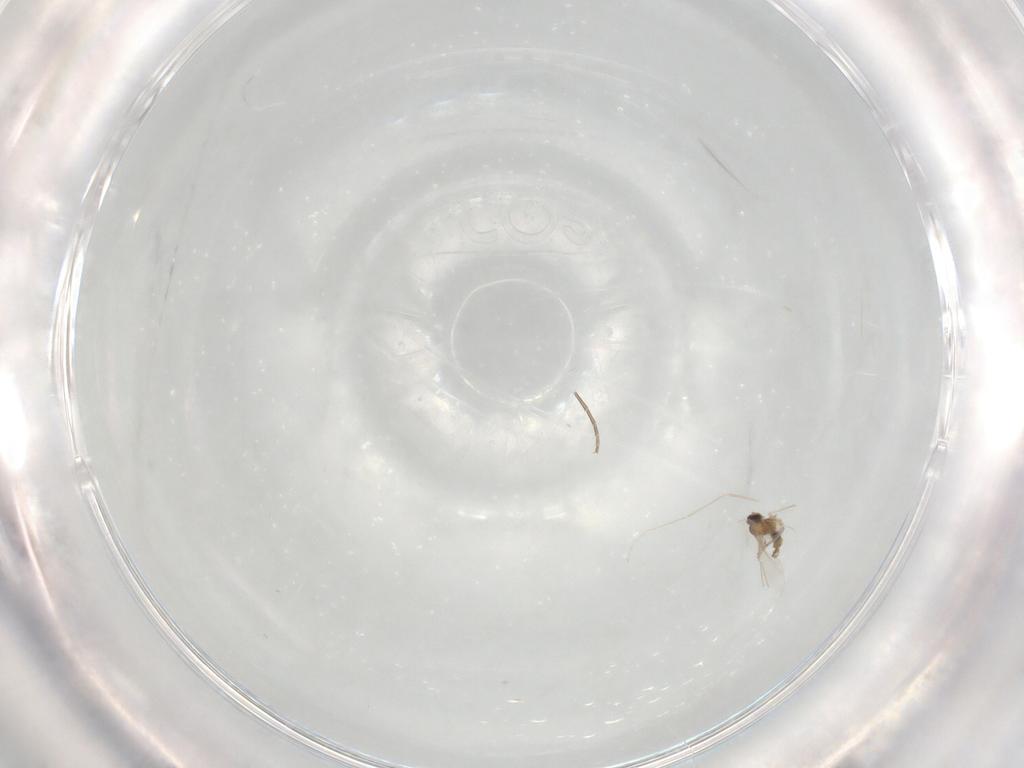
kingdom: Animalia
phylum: Arthropoda
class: Insecta
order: Diptera
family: Cecidomyiidae
